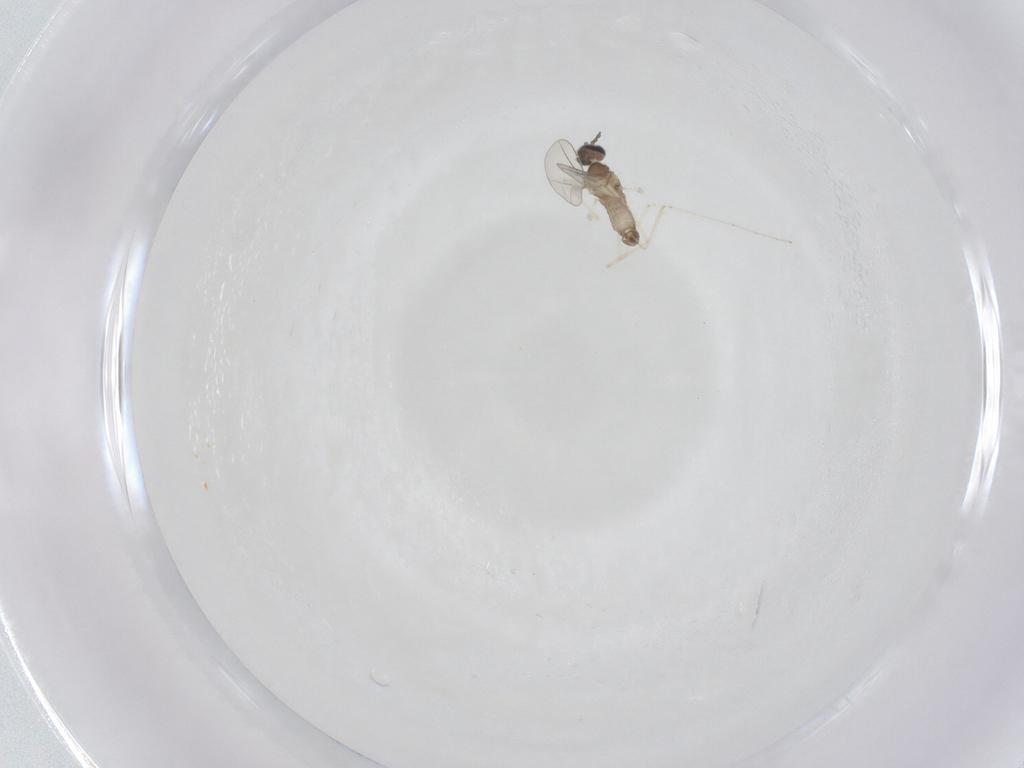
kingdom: Animalia
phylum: Arthropoda
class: Insecta
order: Diptera
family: Cecidomyiidae
